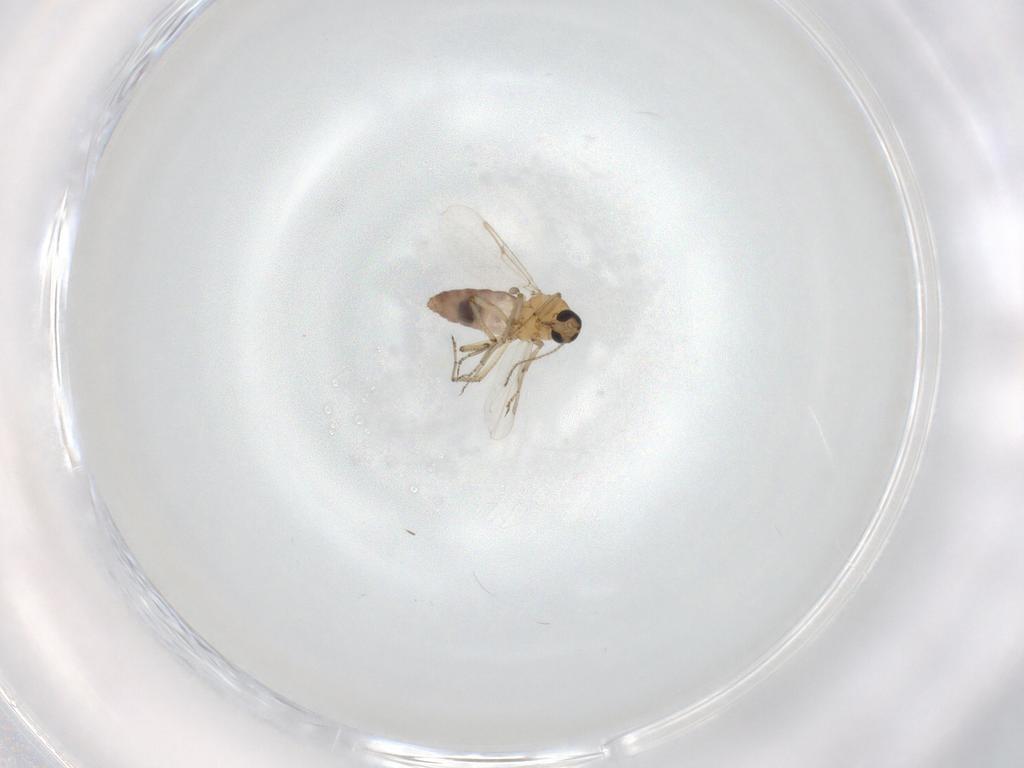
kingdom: Animalia
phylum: Arthropoda
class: Insecta
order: Diptera
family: Ceratopogonidae
